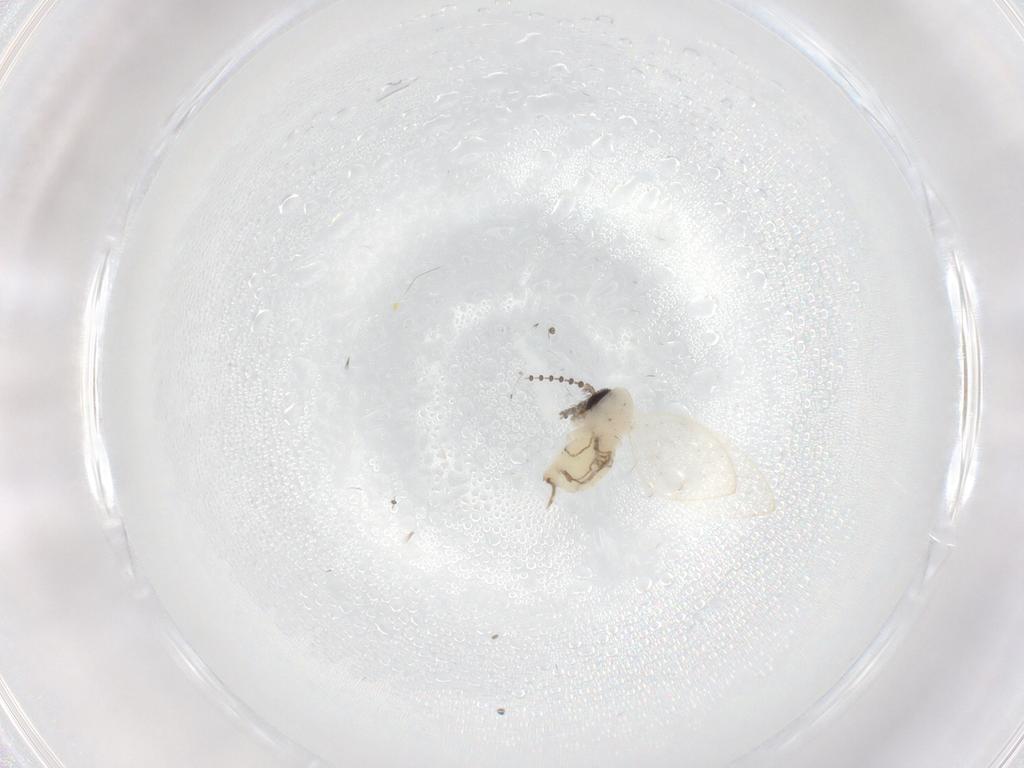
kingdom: Animalia
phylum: Arthropoda
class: Insecta
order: Diptera
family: Psychodidae
